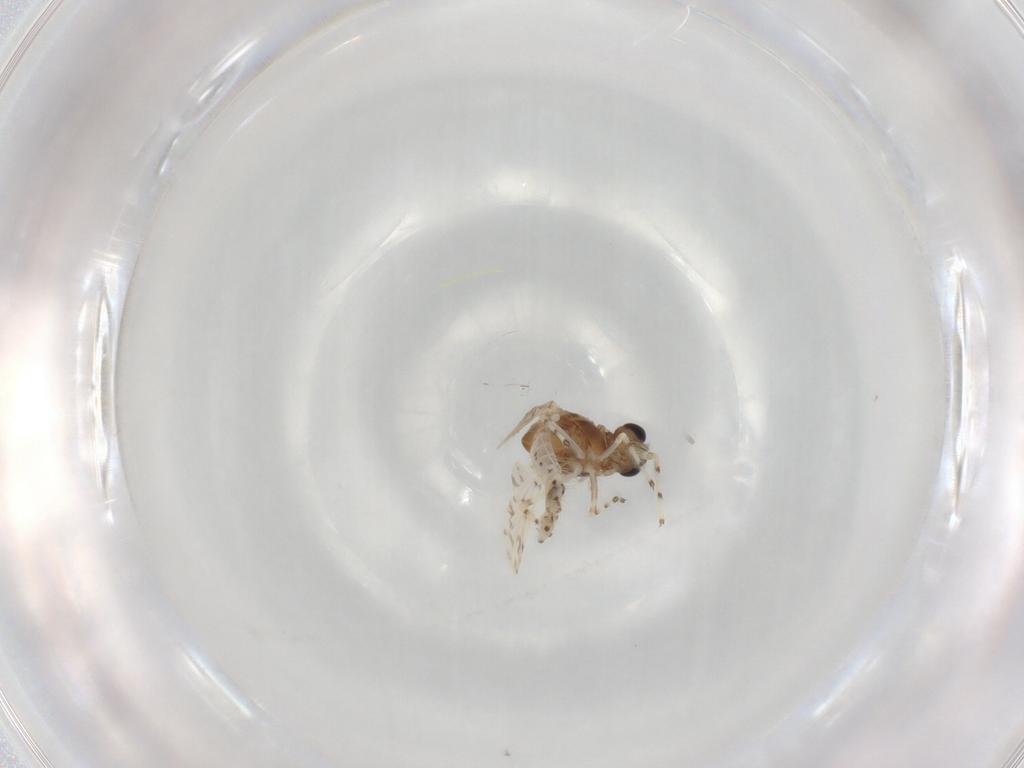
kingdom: Animalia
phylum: Arthropoda
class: Insecta
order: Diptera
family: Chironomidae
